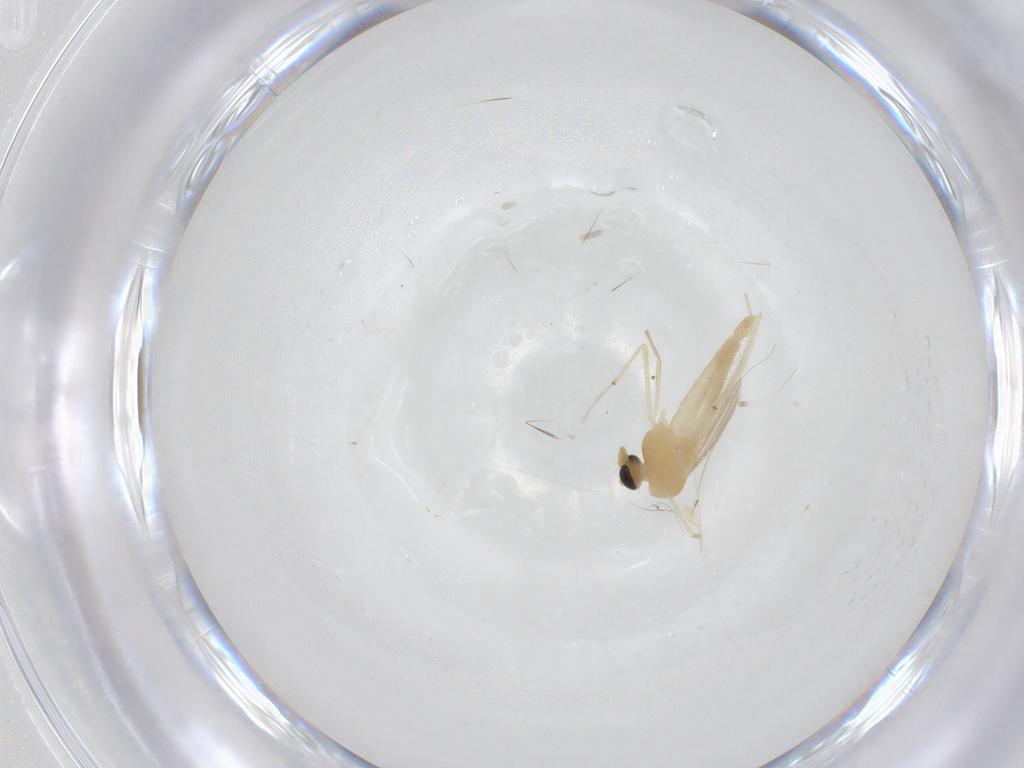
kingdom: Animalia
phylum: Arthropoda
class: Insecta
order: Diptera
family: Chironomidae
